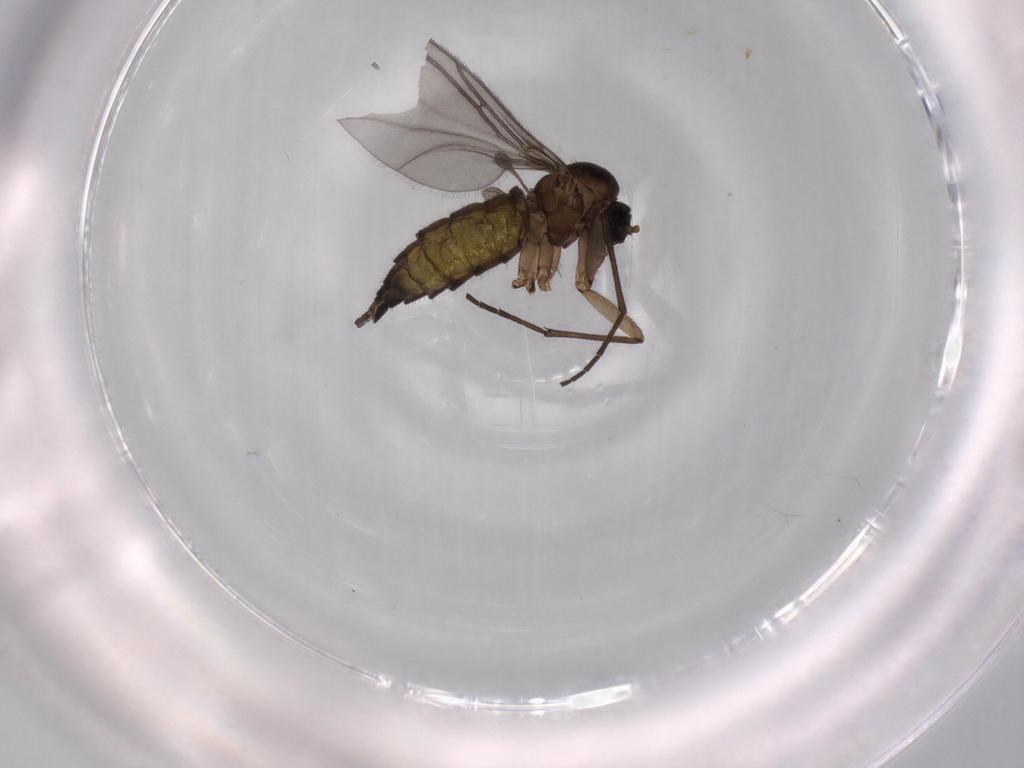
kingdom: Animalia
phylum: Arthropoda
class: Insecta
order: Diptera
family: Sciaridae
